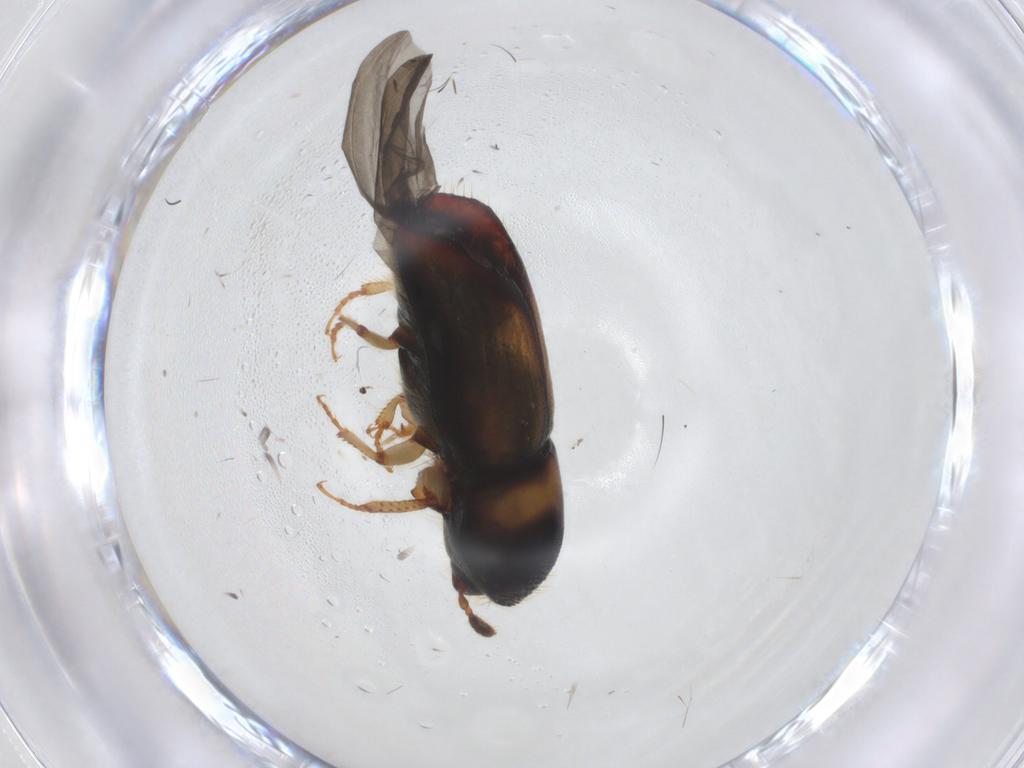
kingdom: Animalia
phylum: Arthropoda
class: Insecta
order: Coleoptera
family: Curculionidae
